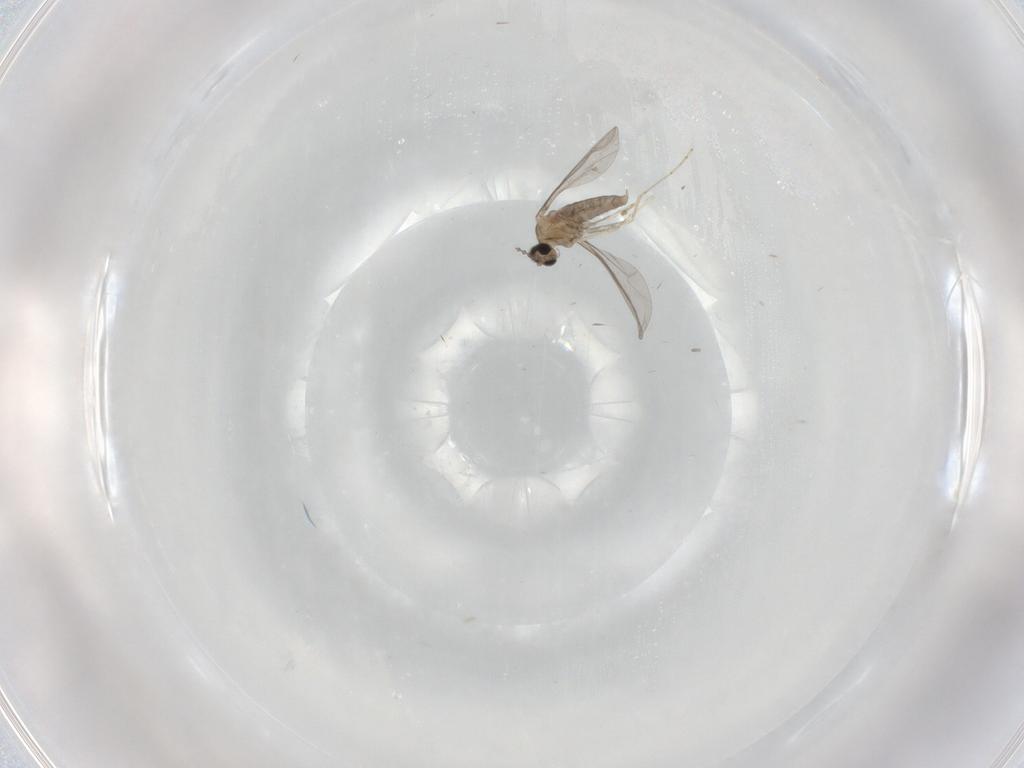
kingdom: Animalia
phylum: Arthropoda
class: Insecta
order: Diptera
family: Cecidomyiidae
